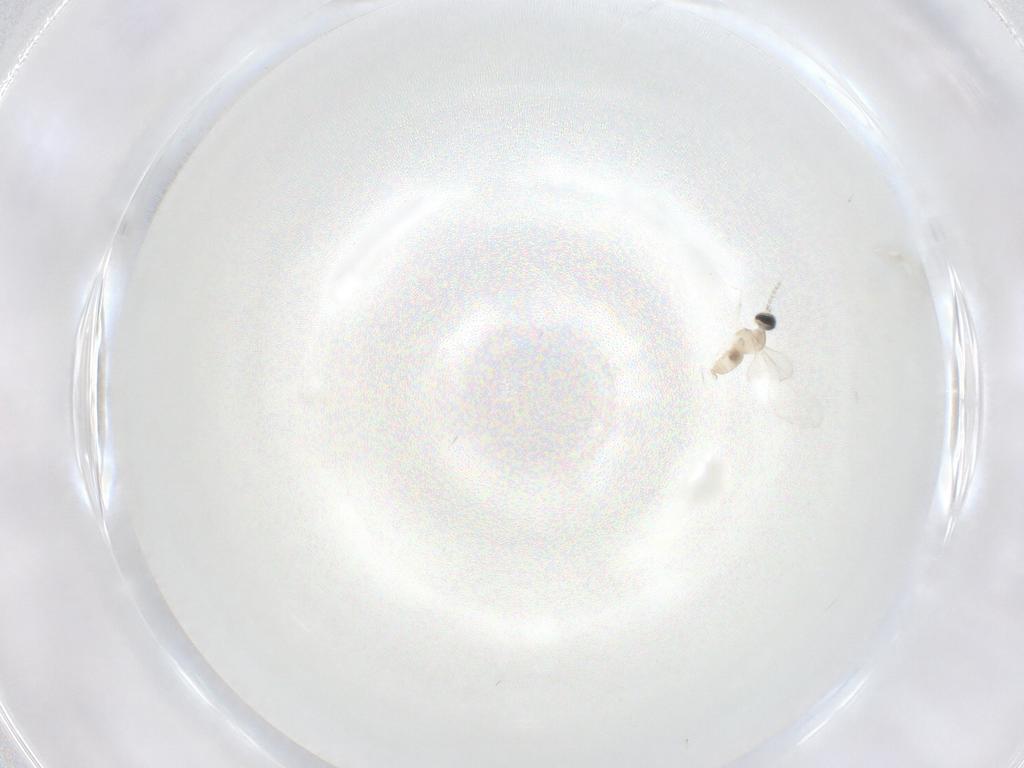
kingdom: Animalia
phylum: Arthropoda
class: Insecta
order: Diptera
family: Cecidomyiidae
